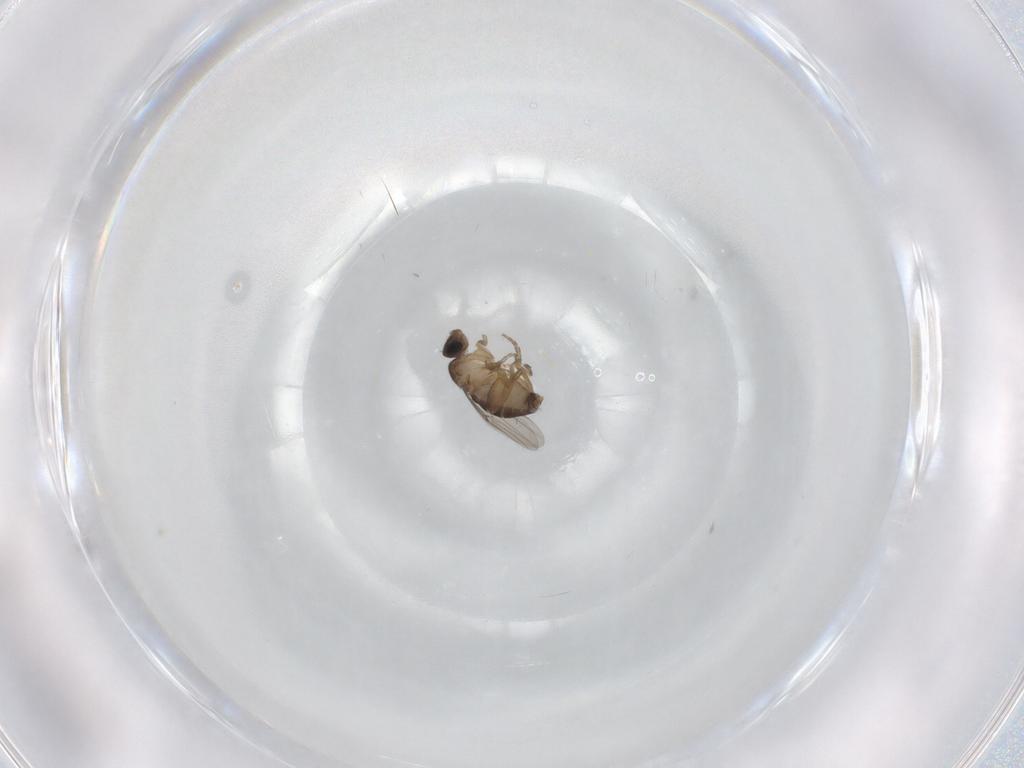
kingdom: Animalia
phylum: Arthropoda
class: Insecta
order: Diptera
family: Phoridae
